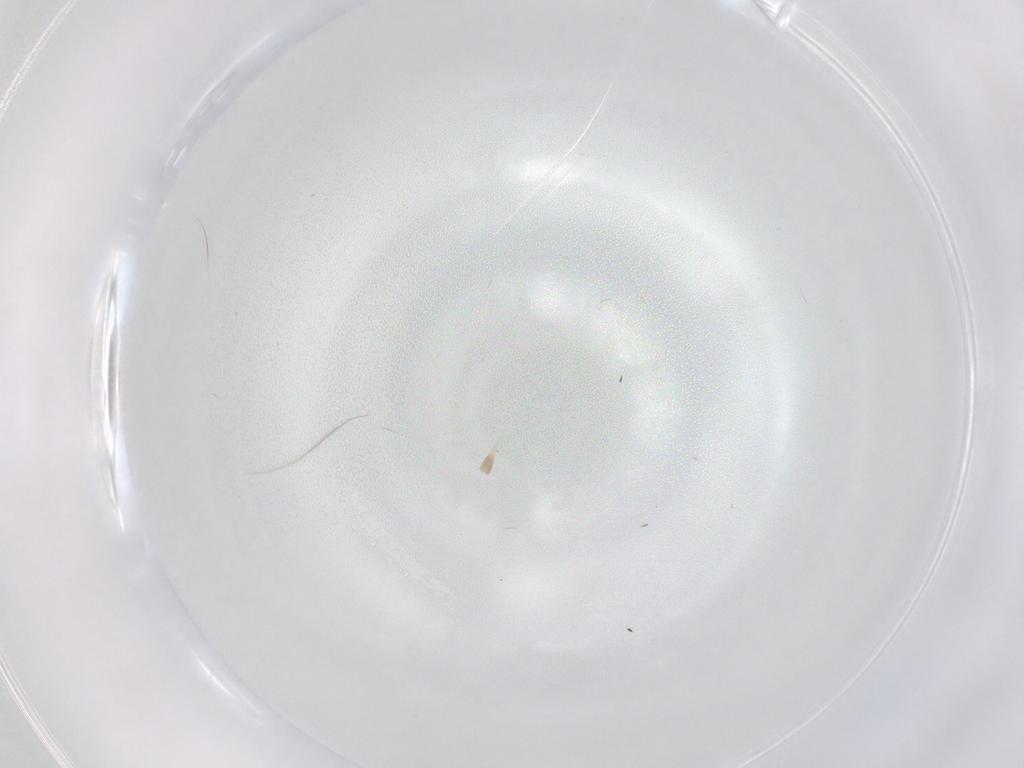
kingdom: Animalia
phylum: Arthropoda
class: Insecta
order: Diptera
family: Sciaridae
